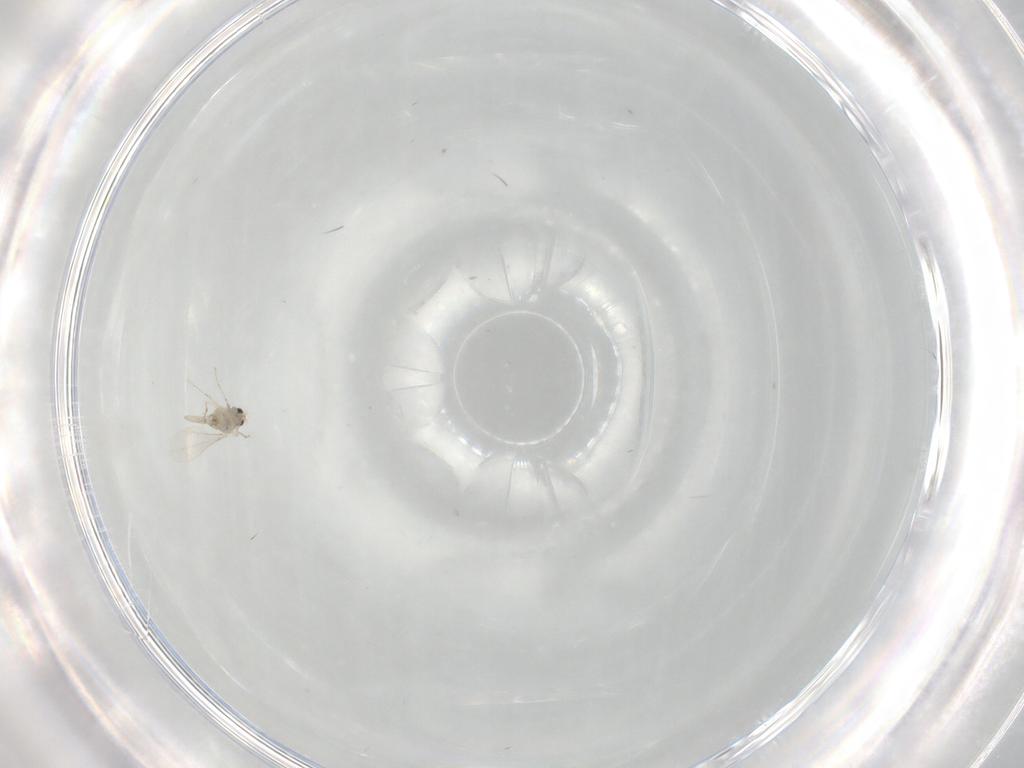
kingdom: Animalia
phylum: Arthropoda
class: Insecta
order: Diptera
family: Cecidomyiidae
